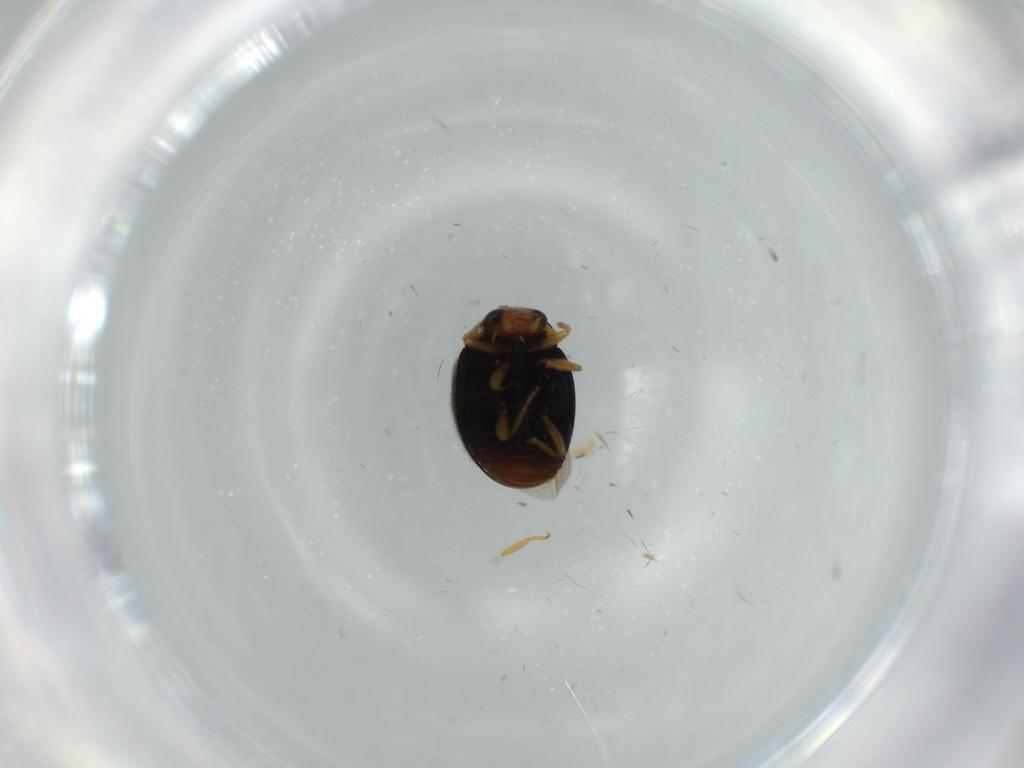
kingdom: Animalia
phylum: Arthropoda
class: Insecta
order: Coleoptera
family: Coccinellidae
